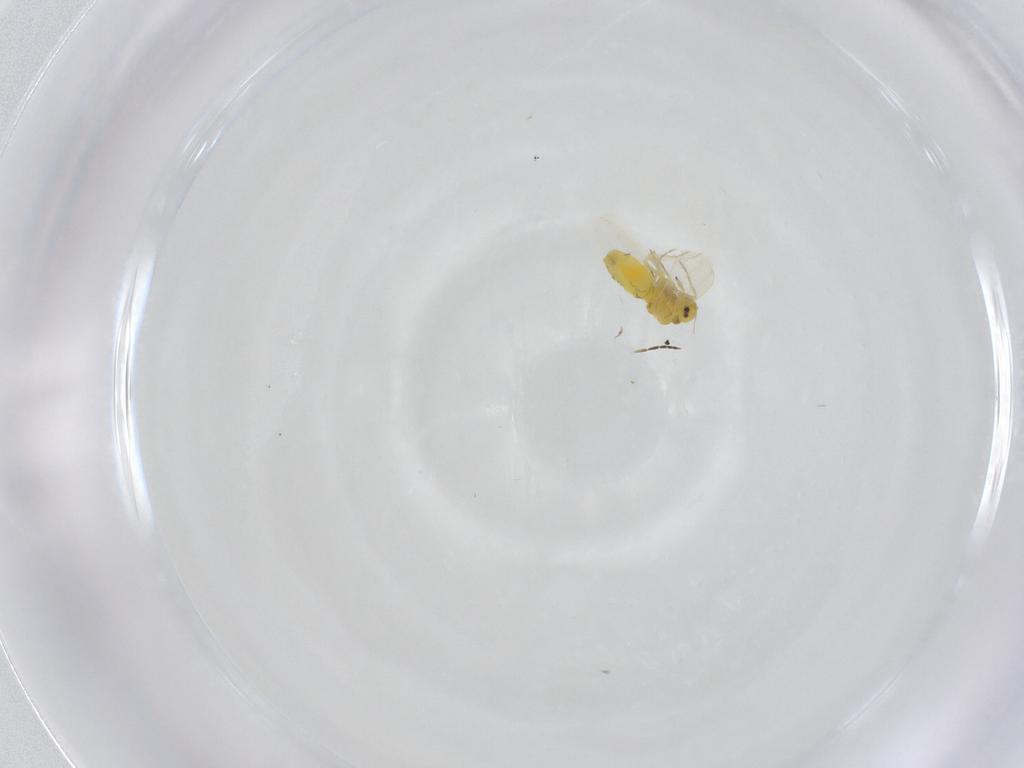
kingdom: Animalia
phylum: Arthropoda
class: Insecta
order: Hemiptera
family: Aleyrodidae
